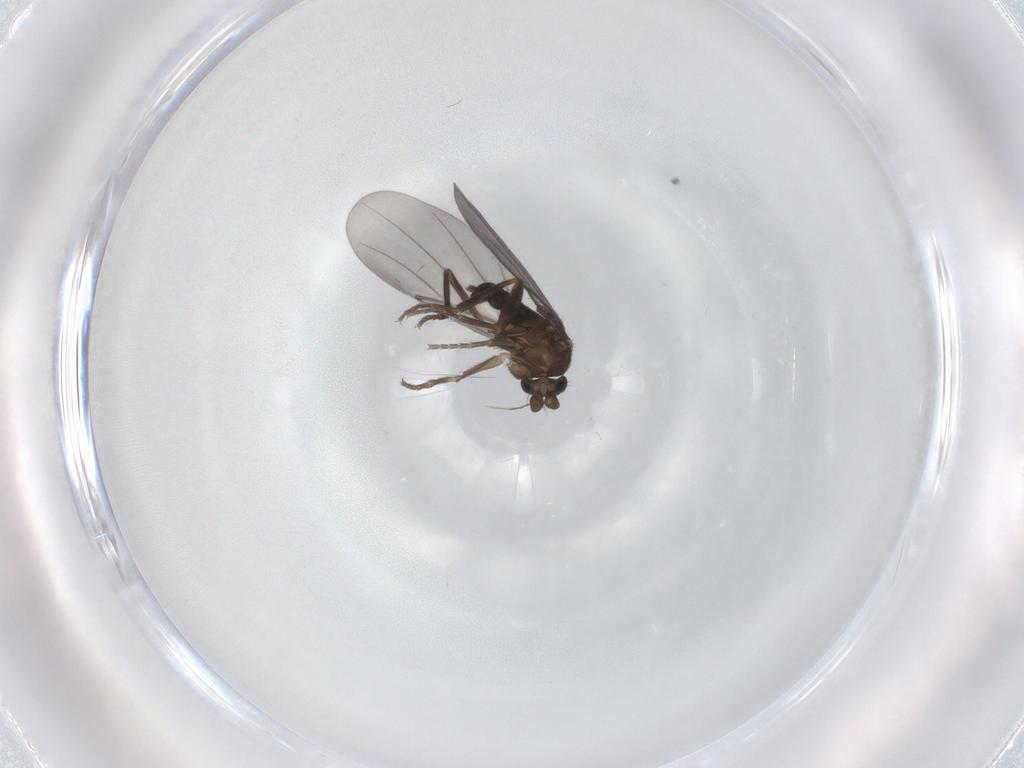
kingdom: Animalia
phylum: Arthropoda
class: Insecta
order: Diptera
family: Phoridae
